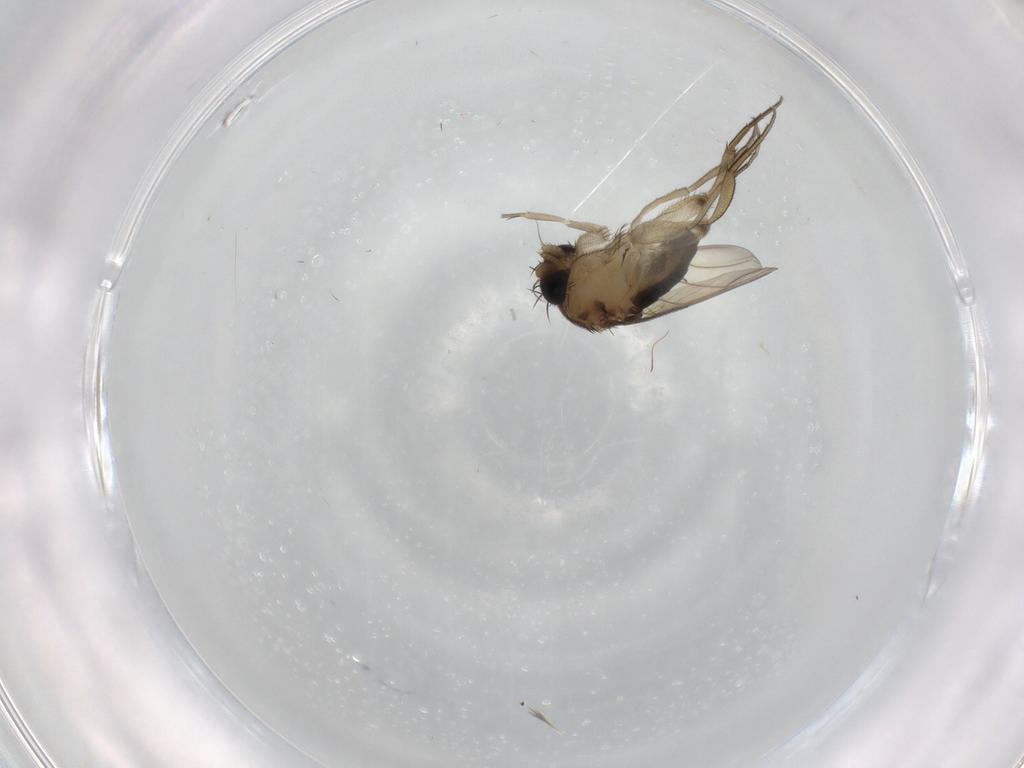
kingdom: Animalia
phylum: Arthropoda
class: Insecta
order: Diptera
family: Phoridae
